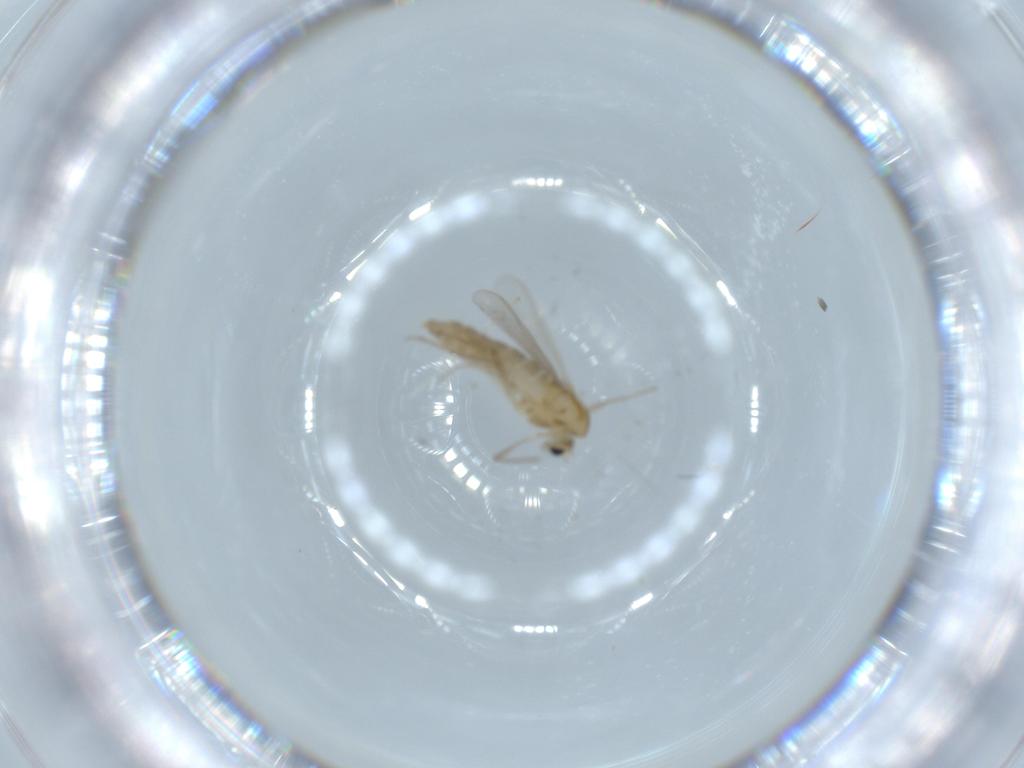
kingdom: Animalia
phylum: Arthropoda
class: Insecta
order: Diptera
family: Chironomidae
